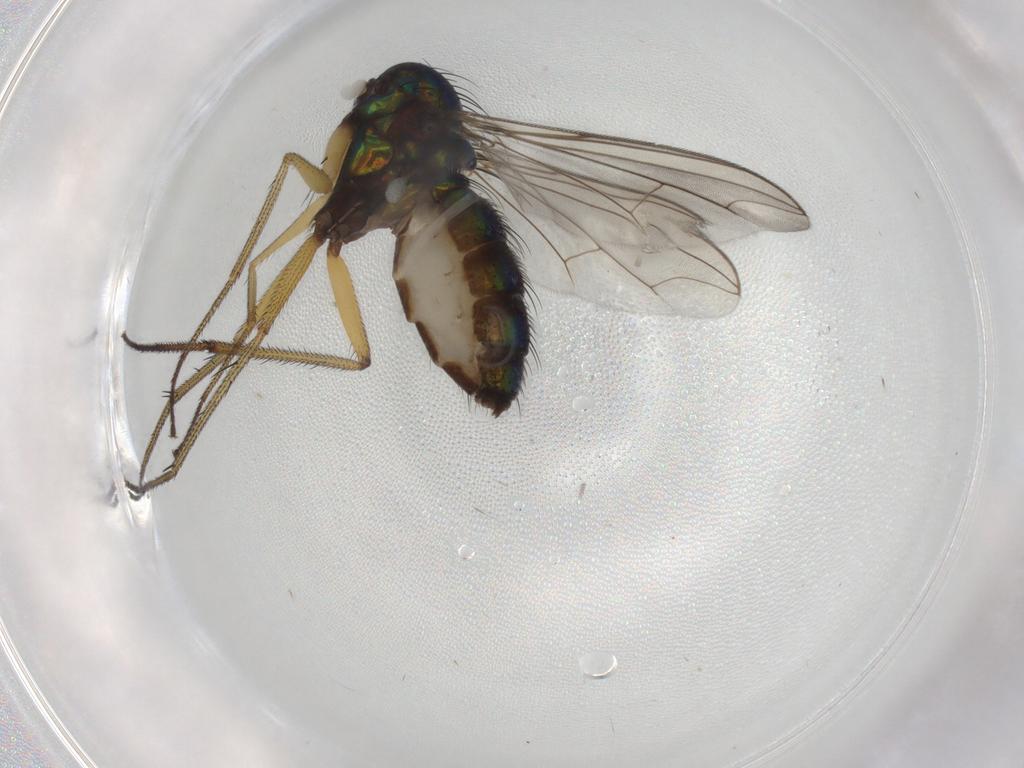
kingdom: Animalia
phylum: Arthropoda
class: Insecta
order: Diptera
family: Dolichopodidae
